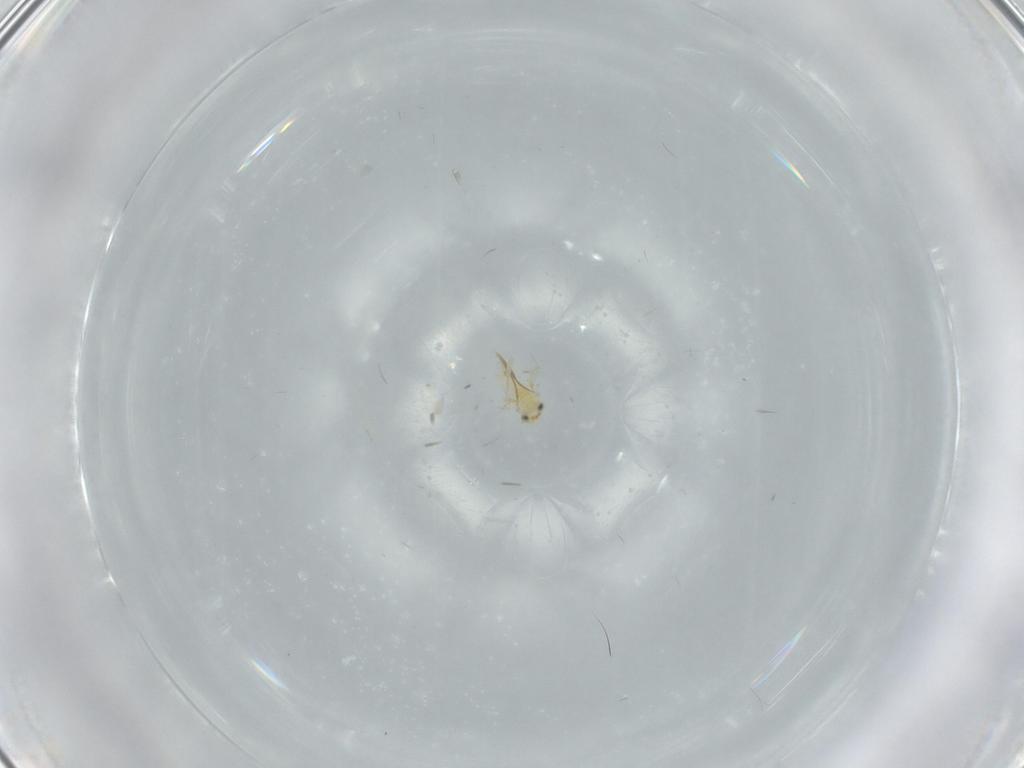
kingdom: Animalia
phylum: Arthropoda
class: Insecta
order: Hymenoptera
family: Aphelinidae
